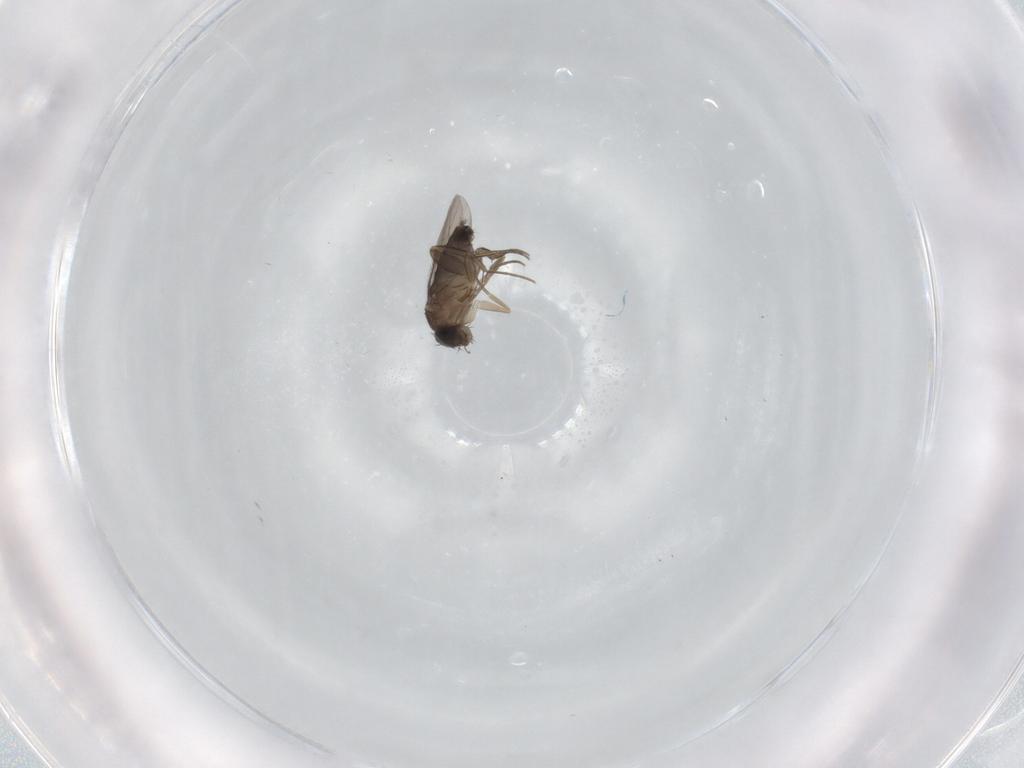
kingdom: Animalia
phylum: Arthropoda
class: Insecta
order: Diptera
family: Phoridae
